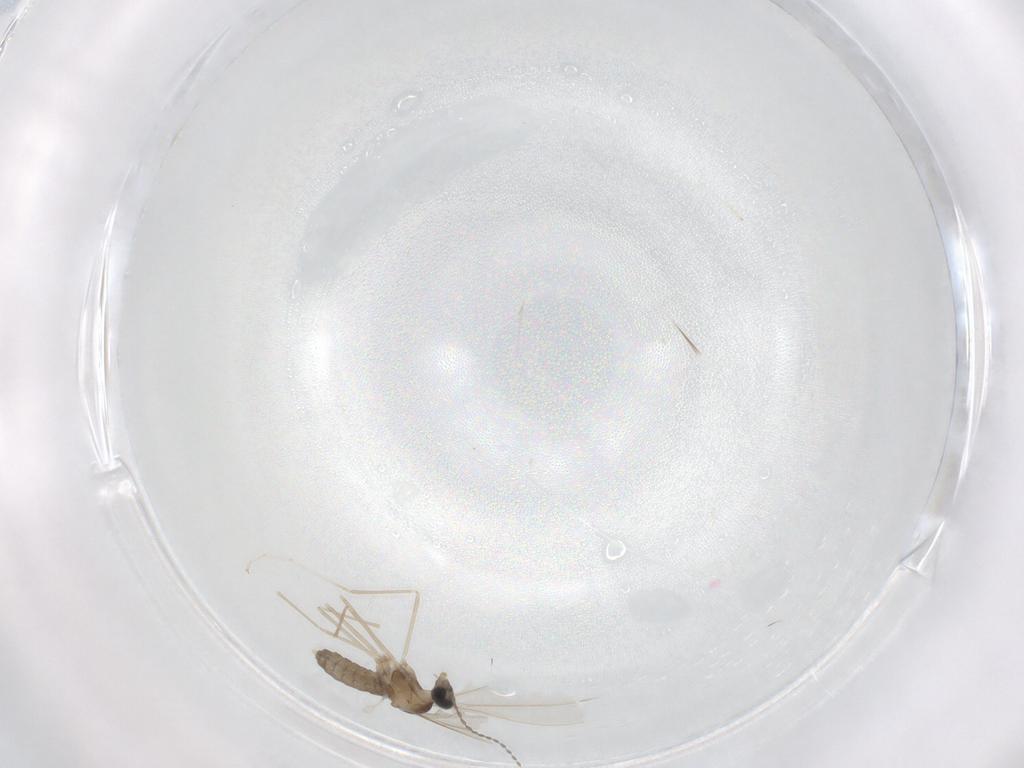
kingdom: Animalia
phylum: Arthropoda
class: Insecta
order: Diptera
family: Cecidomyiidae
